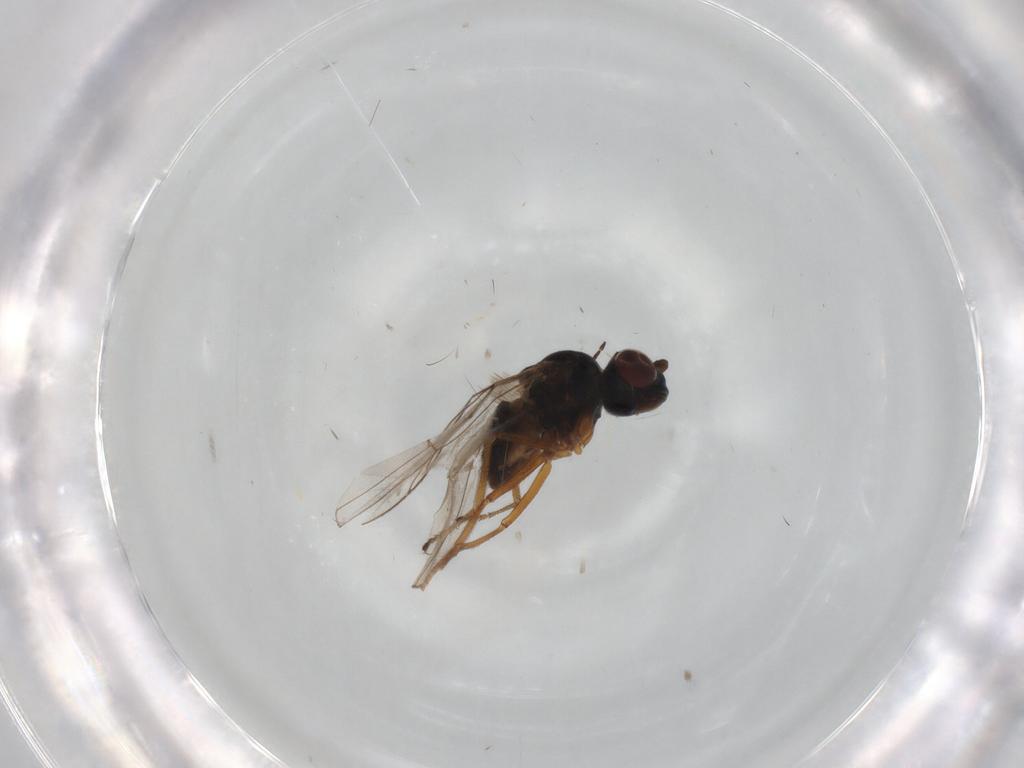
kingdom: Animalia
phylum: Arthropoda
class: Insecta
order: Diptera
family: Ephydridae
